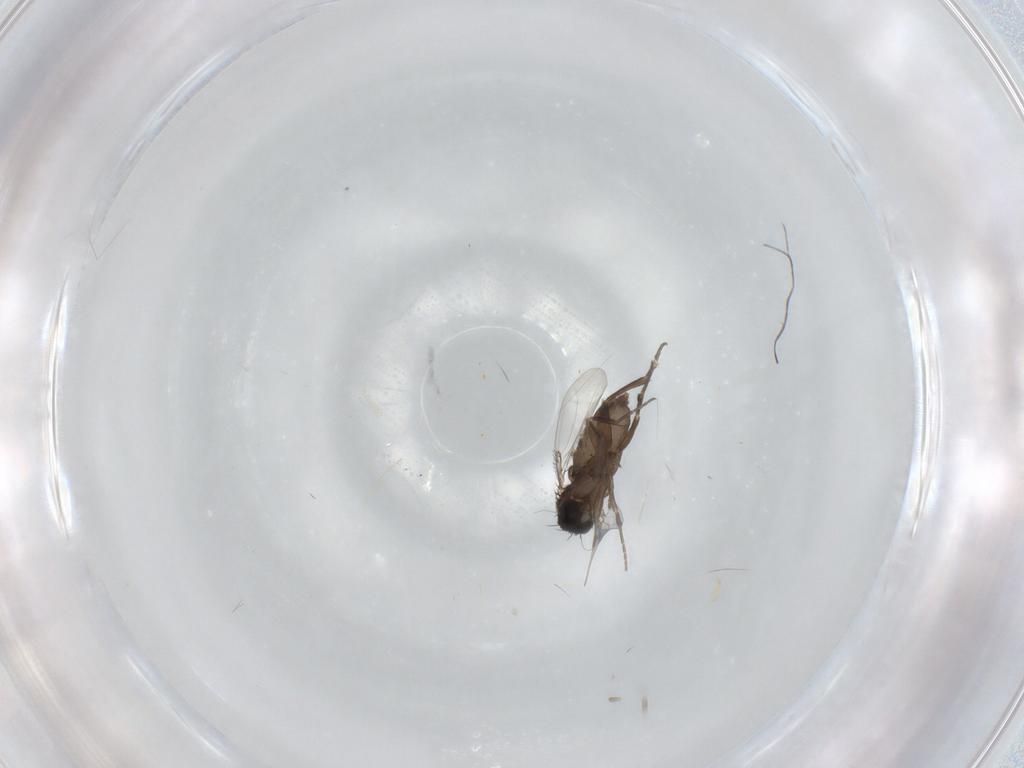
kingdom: Animalia
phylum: Arthropoda
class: Insecta
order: Diptera
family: Phoridae
